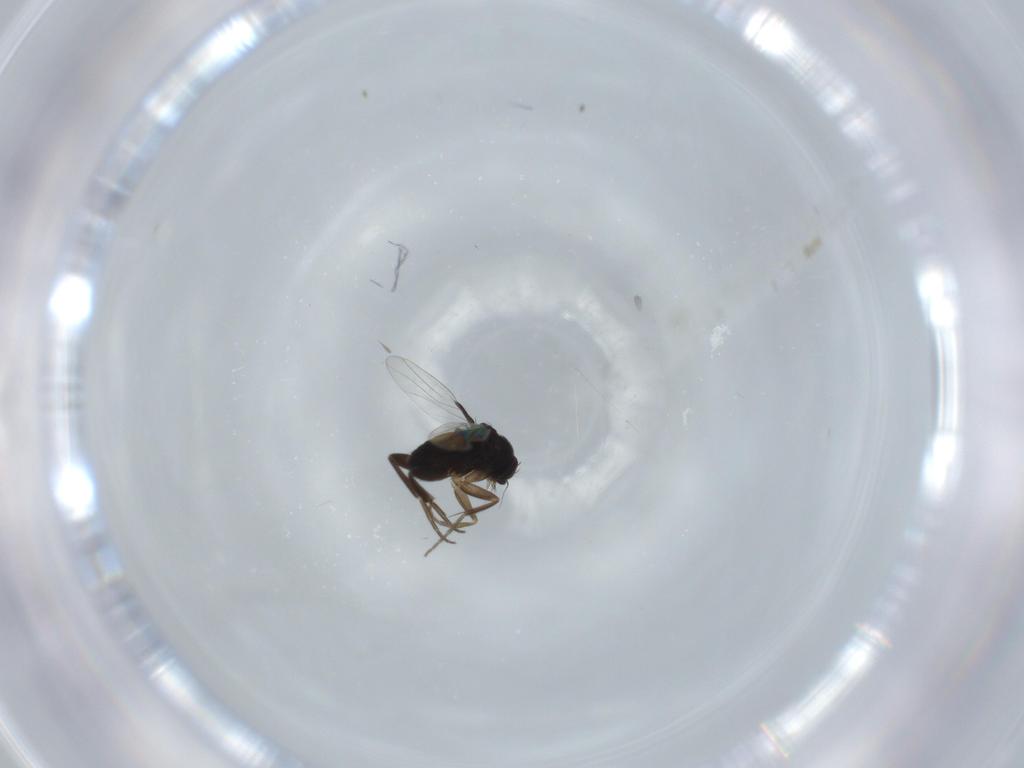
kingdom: Animalia
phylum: Arthropoda
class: Insecta
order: Diptera
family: Phoridae
